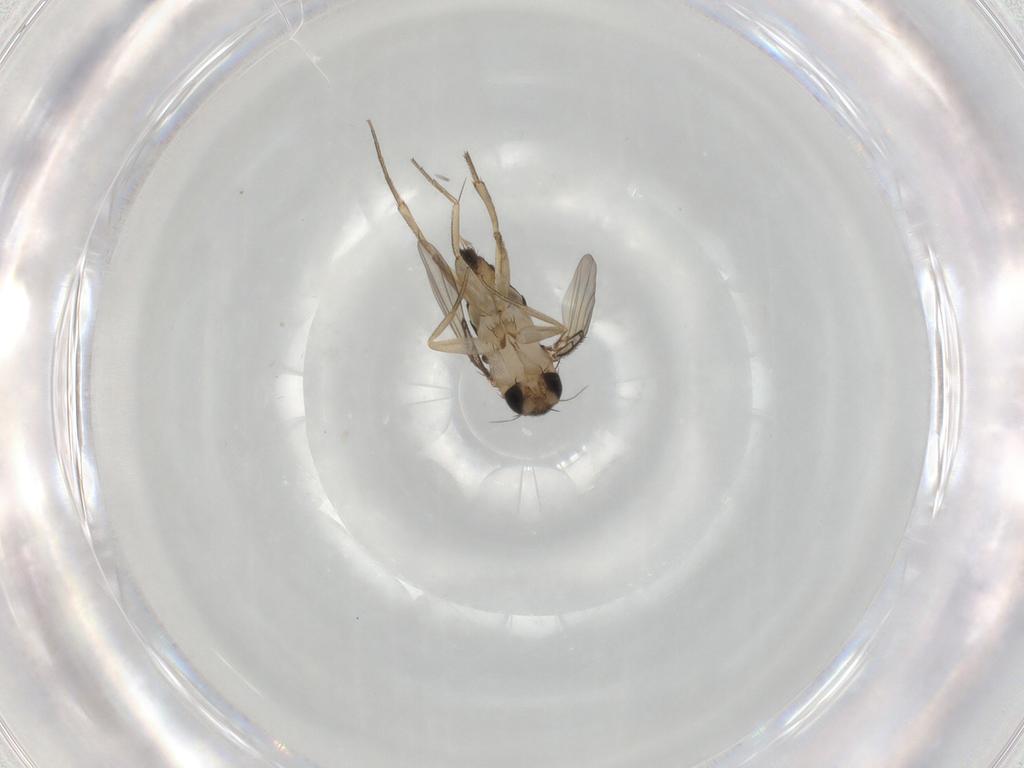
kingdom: Animalia
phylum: Arthropoda
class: Insecta
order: Diptera
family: Phoridae
